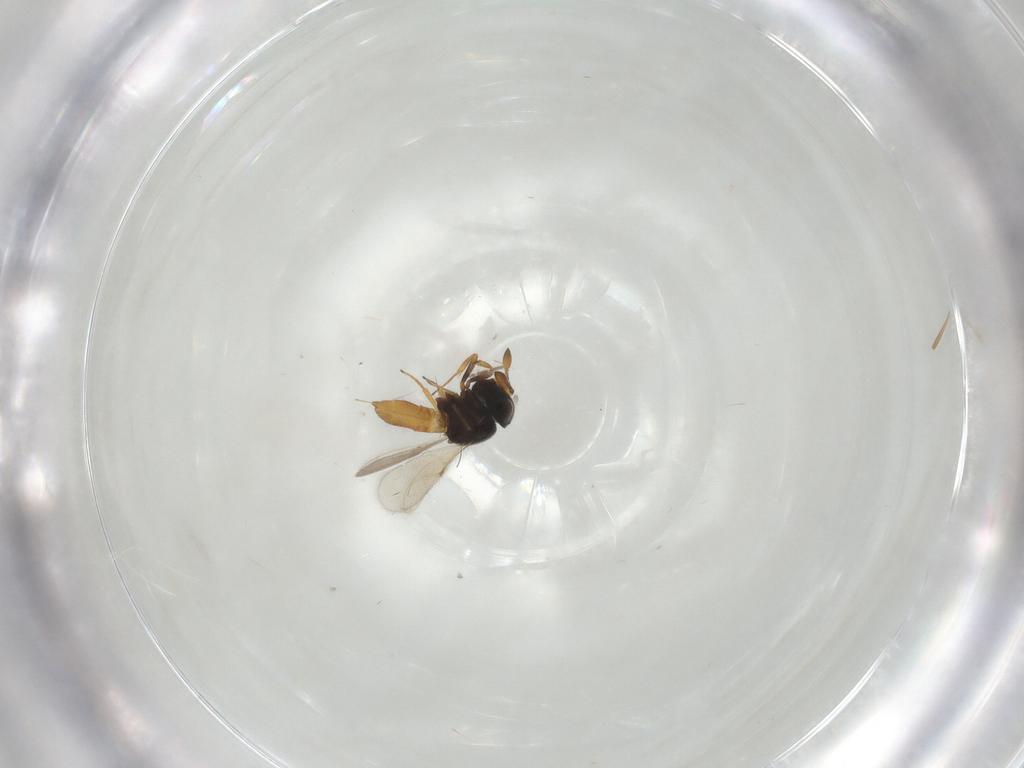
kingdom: Animalia
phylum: Arthropoda
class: Insecta
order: Hymenoptera
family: Scelionidae
